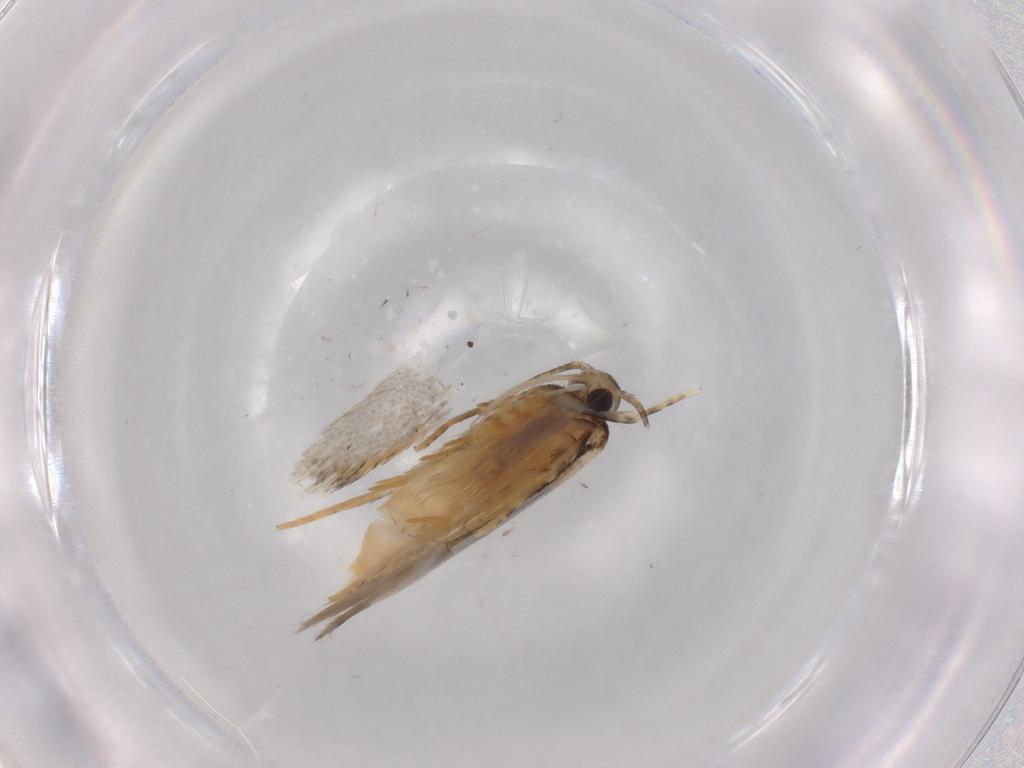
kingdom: Animalia
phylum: Arthropoda
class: Insecta
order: Lepidoptera
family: Autostichidae
